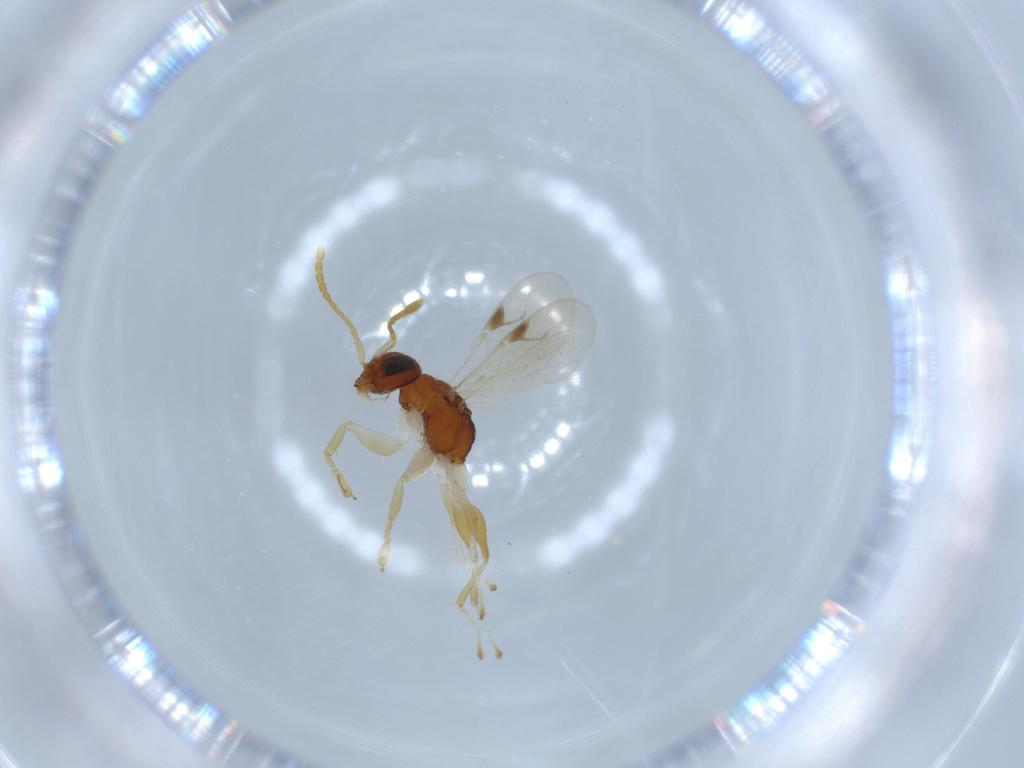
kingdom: Animalia
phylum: Arthropoda
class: Insecta
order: Hymenoptera
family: Dryinidae
